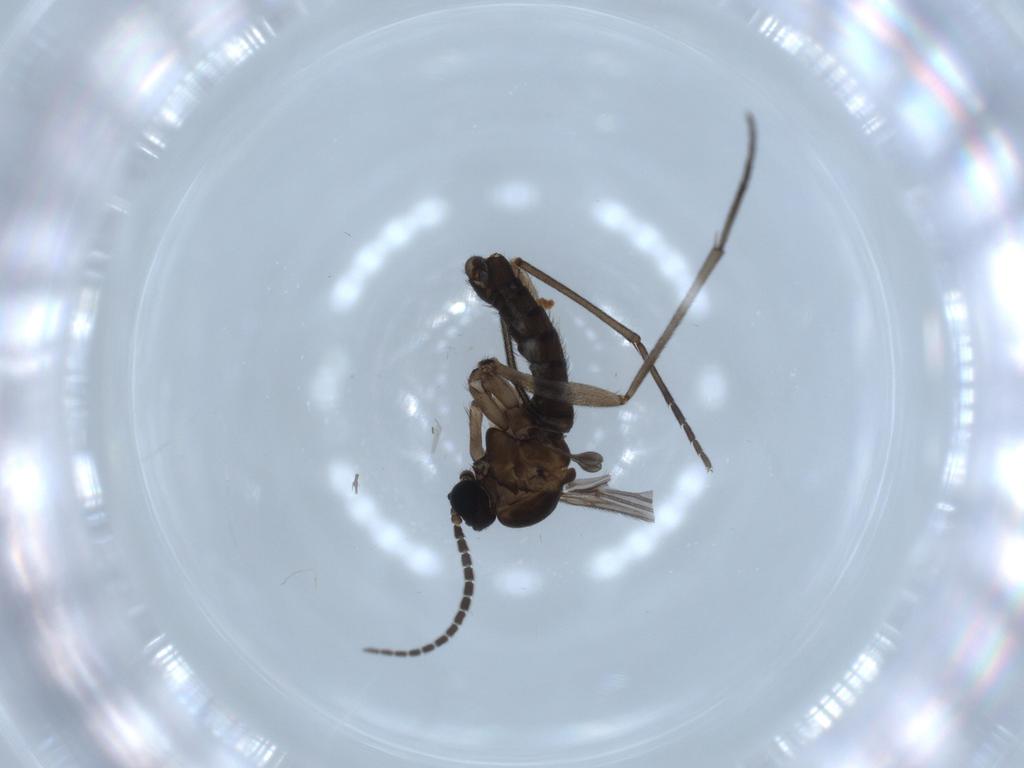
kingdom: Animalia
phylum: Arthropoda
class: Insecta
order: Diptera
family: Sciaridae
